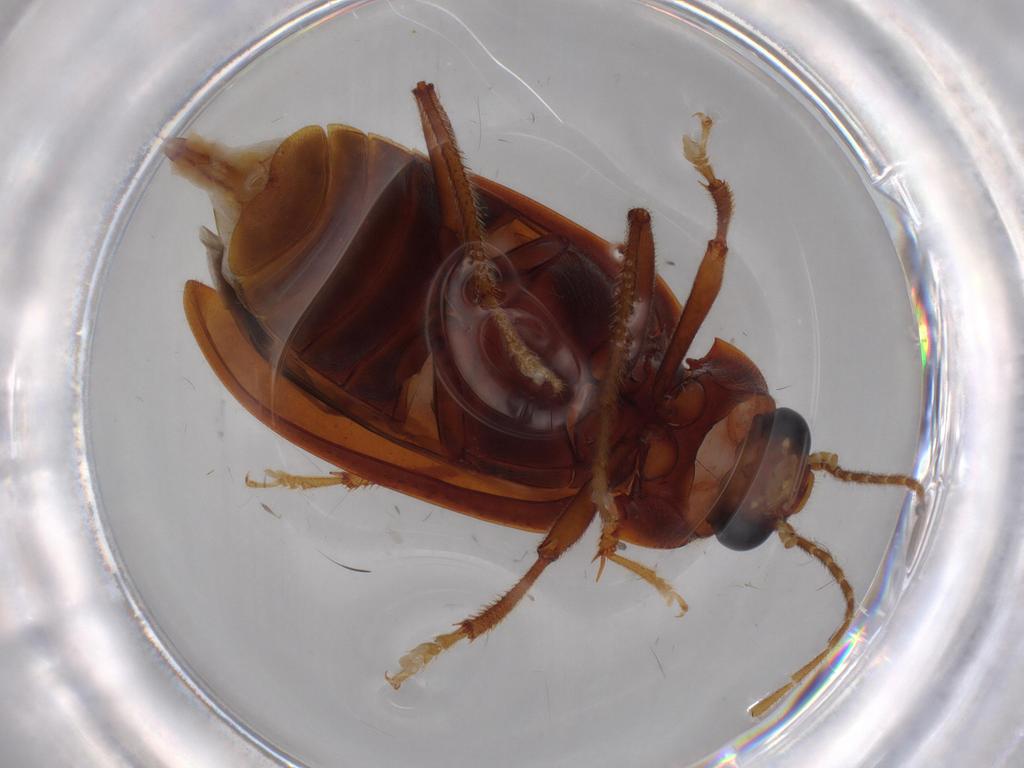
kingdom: Animalia
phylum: Arthropoda
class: Insecta
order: Coleoptera
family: Ptilodactylidae
